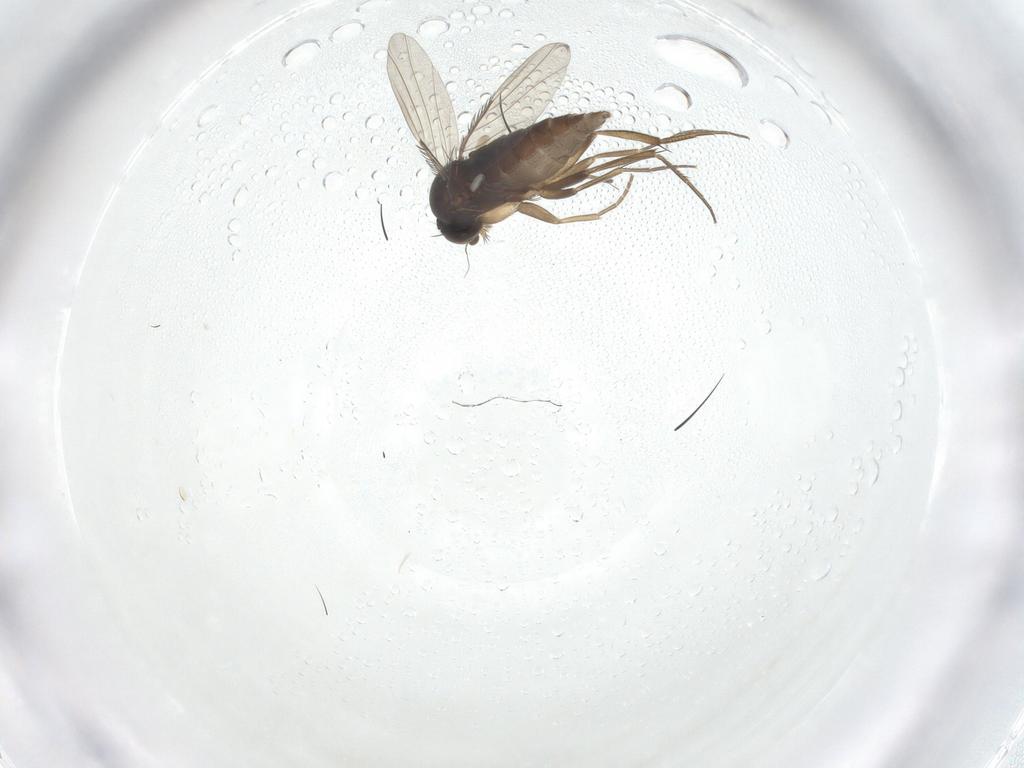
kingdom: Animalia
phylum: Arthropoda
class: Insecta
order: Diptera
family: Phoridae
